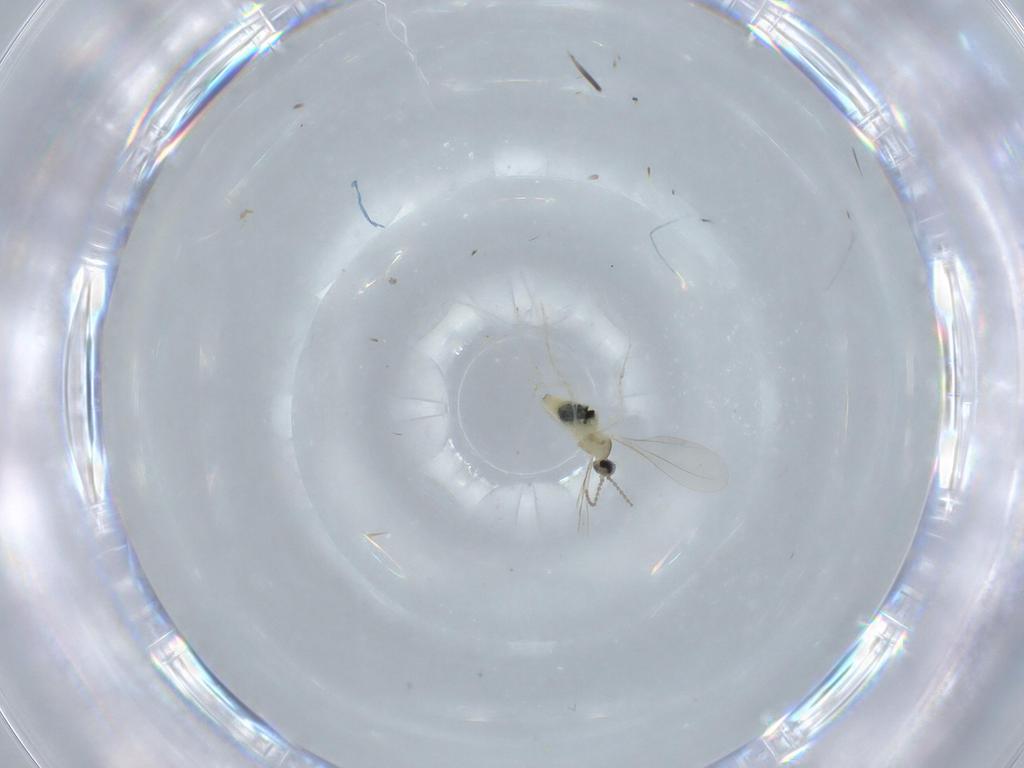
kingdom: Animalia
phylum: Arthropoda
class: Insecta
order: Diptera
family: Cecidomyiidae
